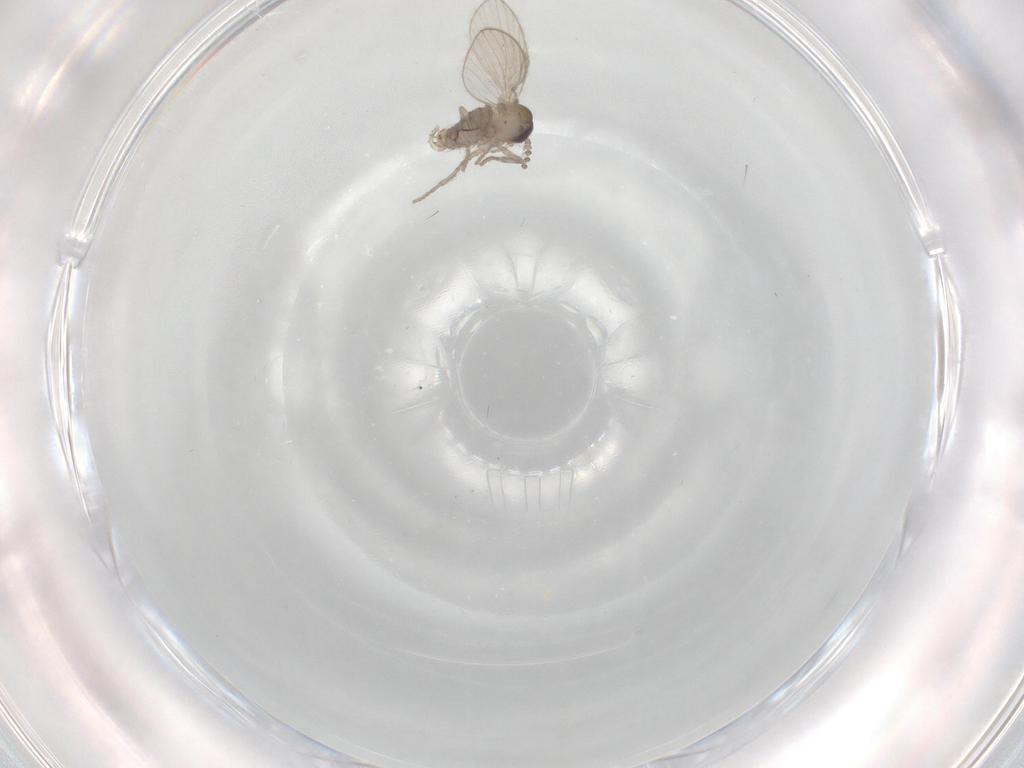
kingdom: Animalia
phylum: Arthropoda
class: Insecta
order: Diptera
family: Psychodidae
